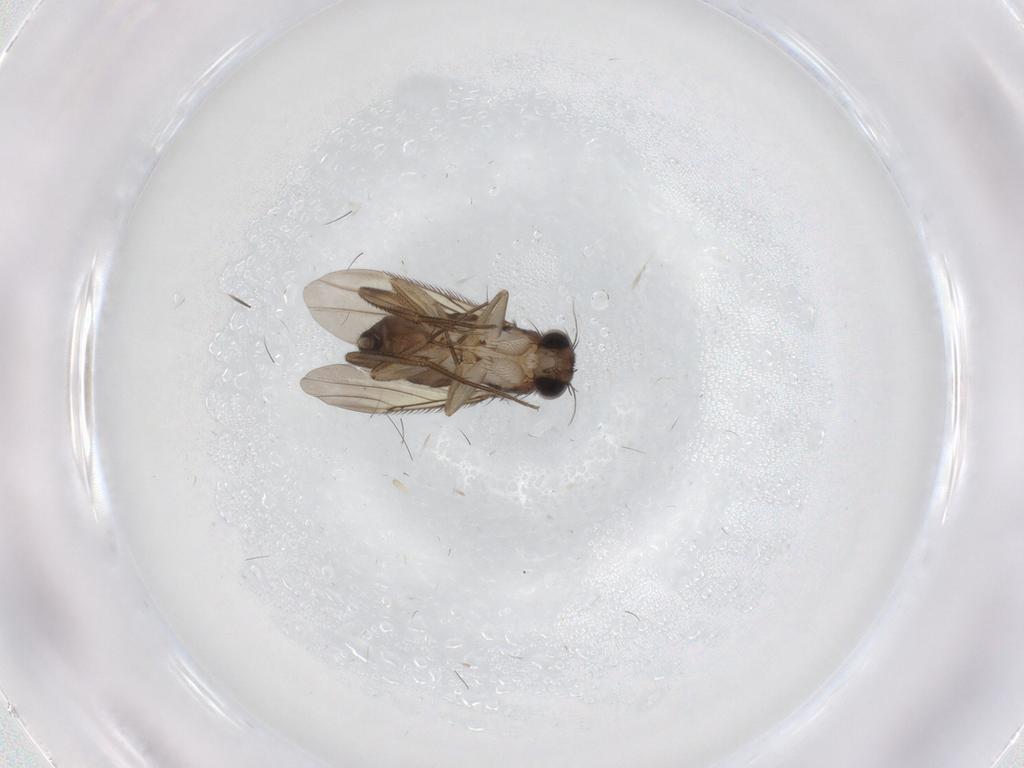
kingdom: Animalia
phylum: Arthropoda
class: Insecta
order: Diptera
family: Phoridae
